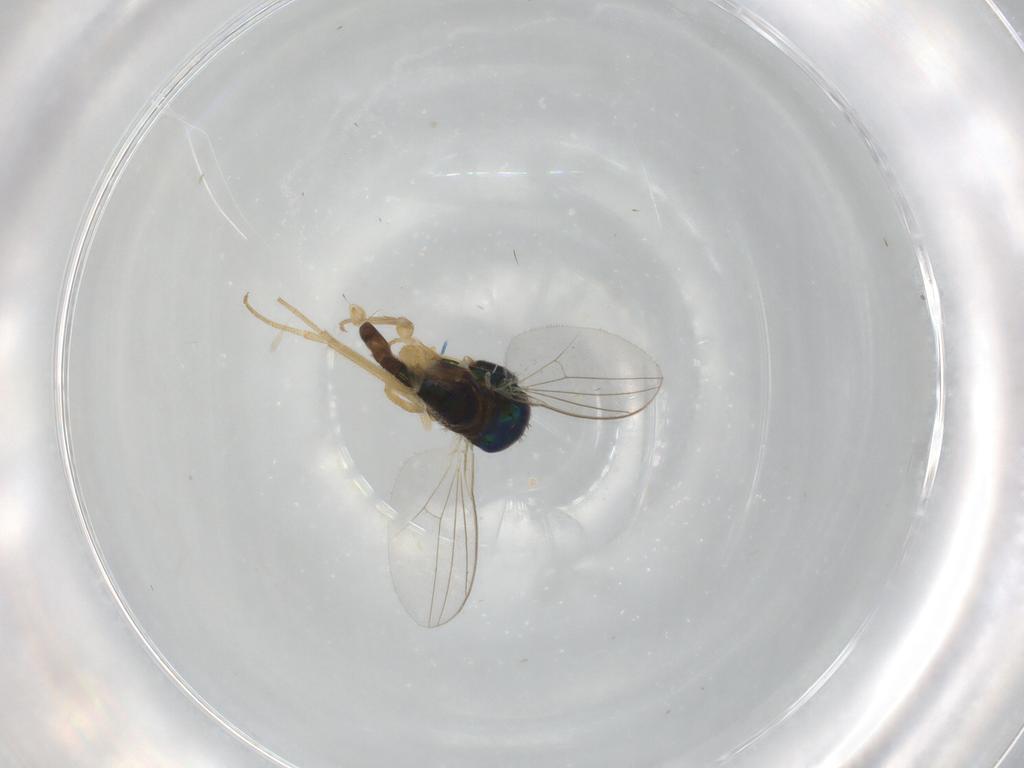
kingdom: Animalia
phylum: Arthropoda
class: Insecta
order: Diptera
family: Dolichopodidae
